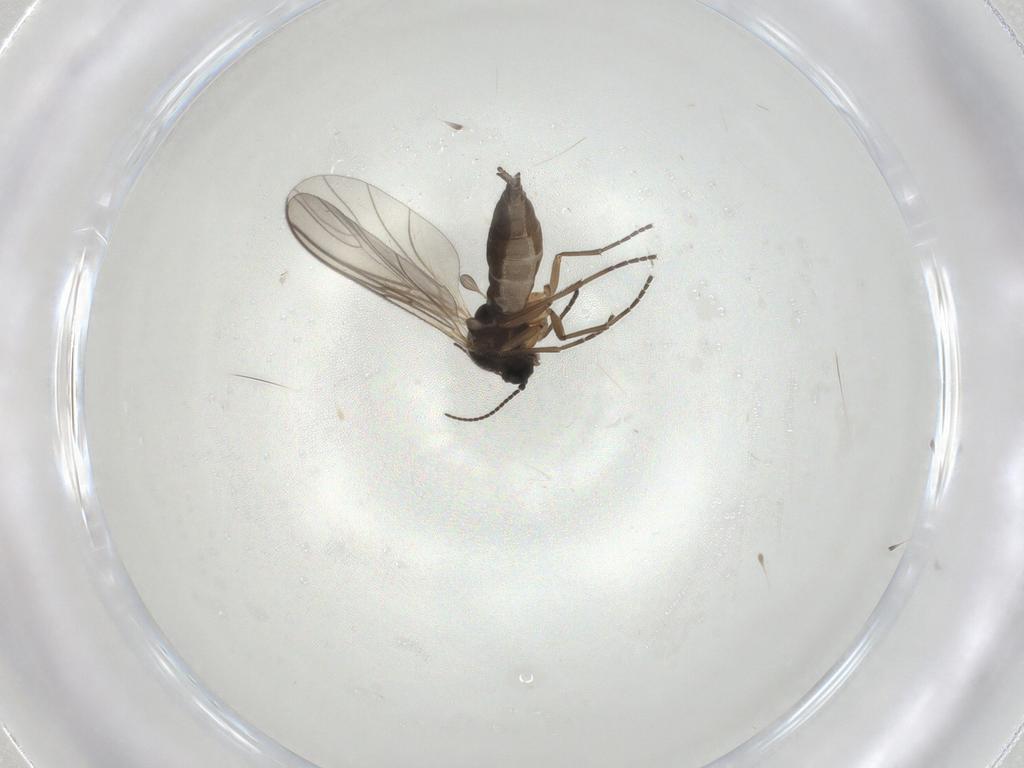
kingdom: Animalia
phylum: Arthropoda
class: Insecta
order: Diptera
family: Sciaridae
